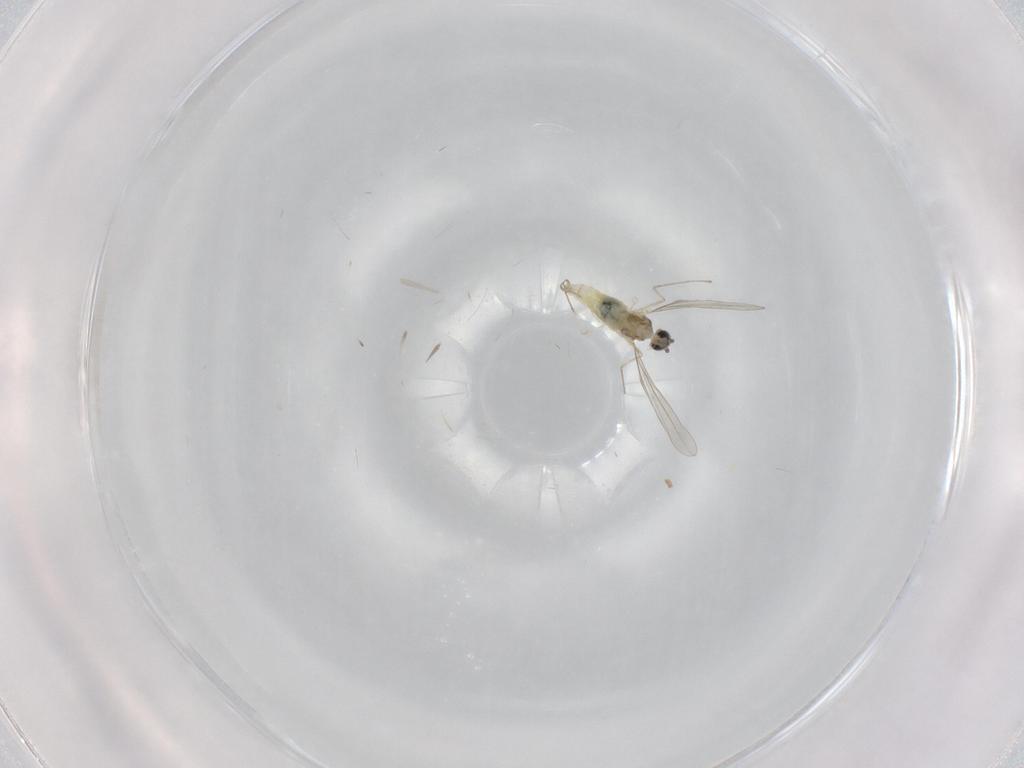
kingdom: Animalia
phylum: Arthropoda
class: Insecta
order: Diptera
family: Cecidomyiidae
